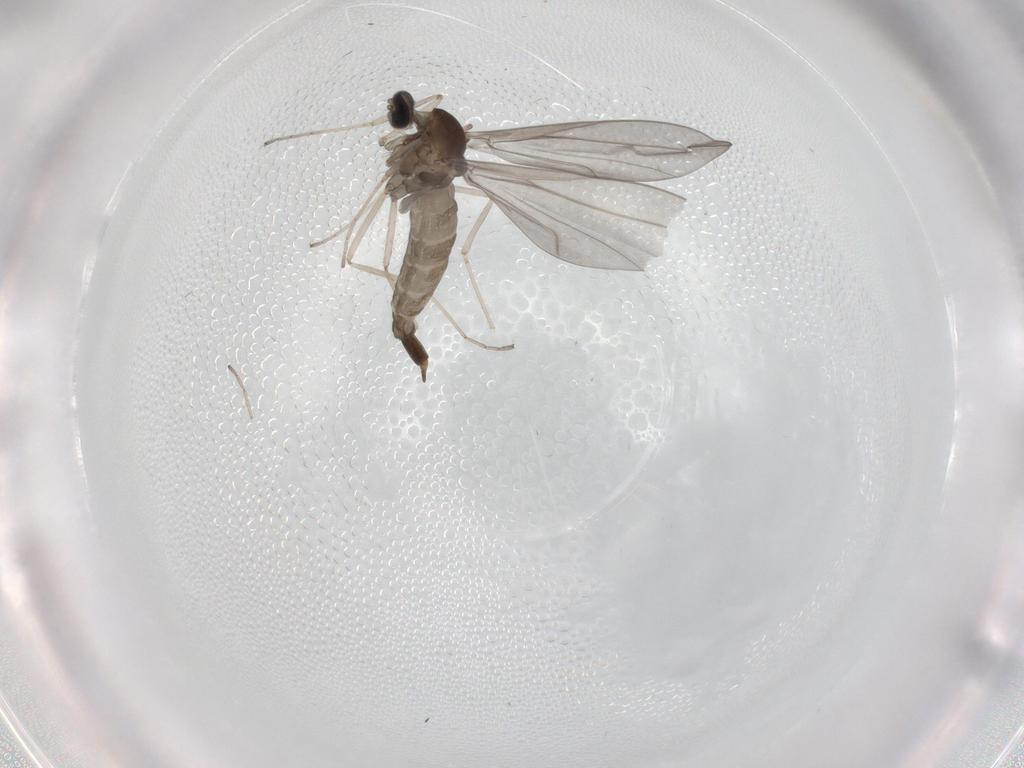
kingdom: Animalia
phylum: Arthropoda
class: Insecta
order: Diptera
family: Cecidomyiidae
